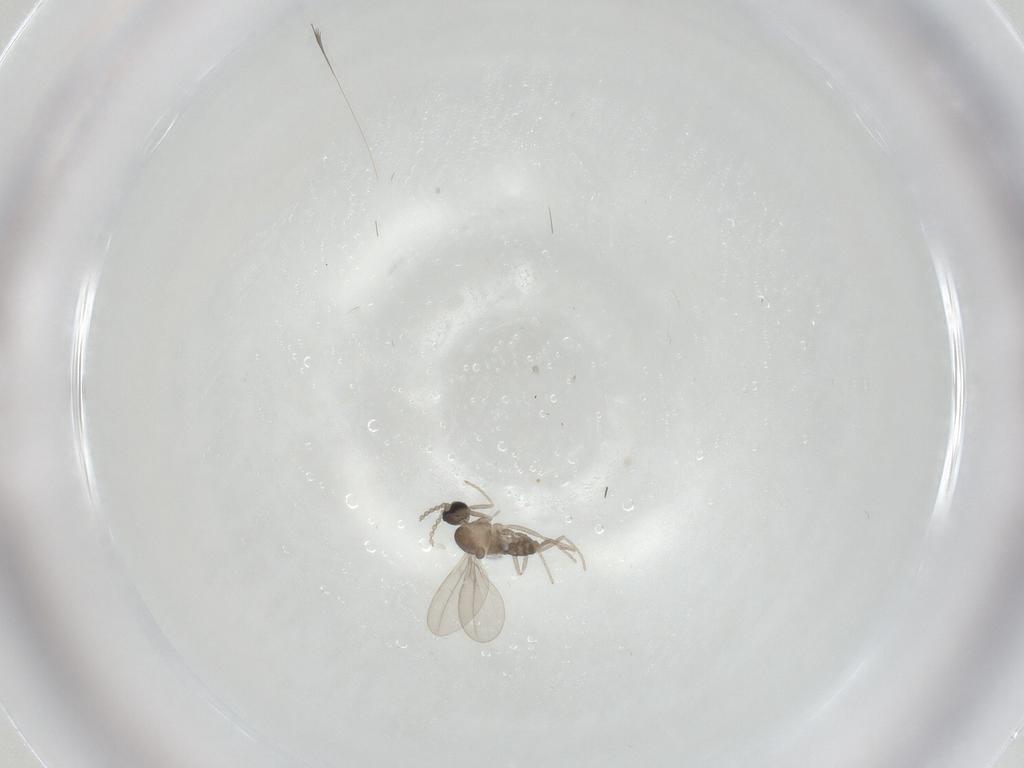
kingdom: Animalia
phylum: Arthropoda
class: Insecta
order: Diptera
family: Cecidomyiidae
